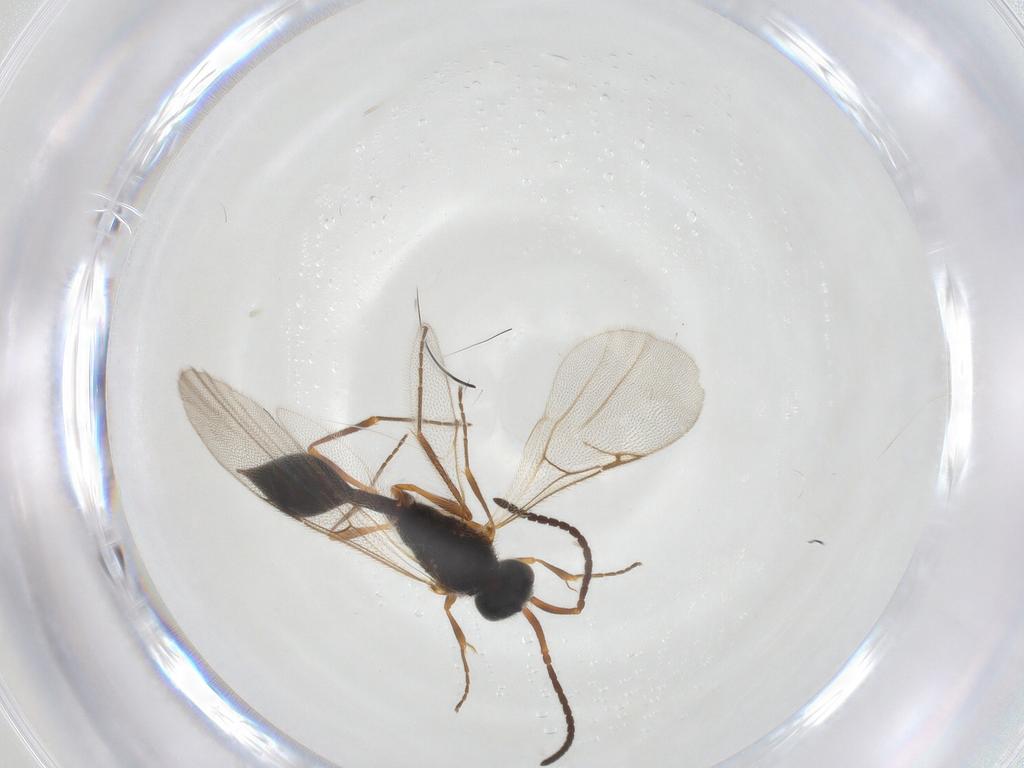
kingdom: Animalia
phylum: Arthropoda
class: Insecta
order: Hymenoptera
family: Diapriidae
